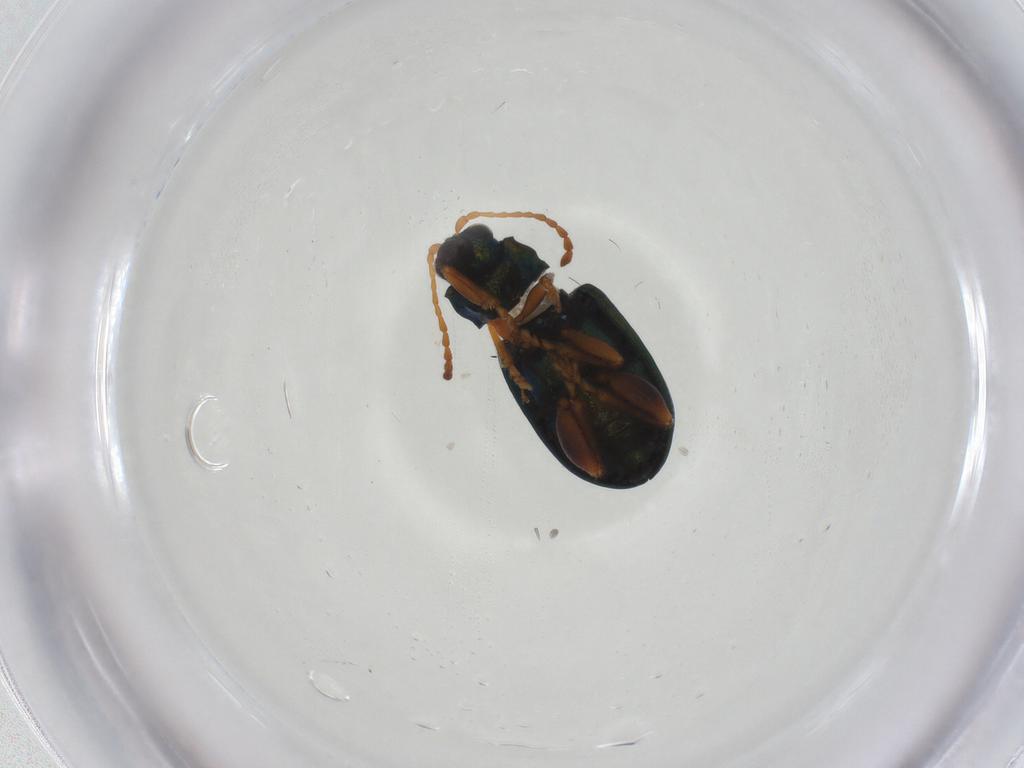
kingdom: Animalia
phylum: Arthropoda
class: Insecta
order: Coleoptera
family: Chrysomelidae
